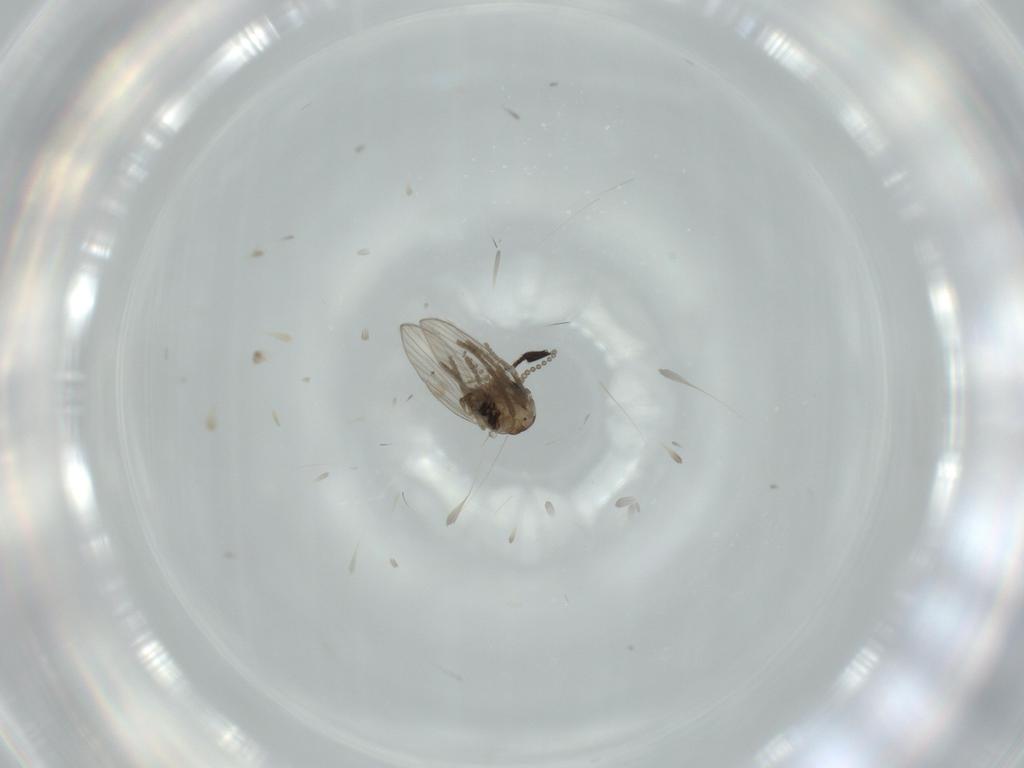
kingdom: Animalia
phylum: Arthropoda
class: Insecta
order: Diptera
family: Psychodidae
